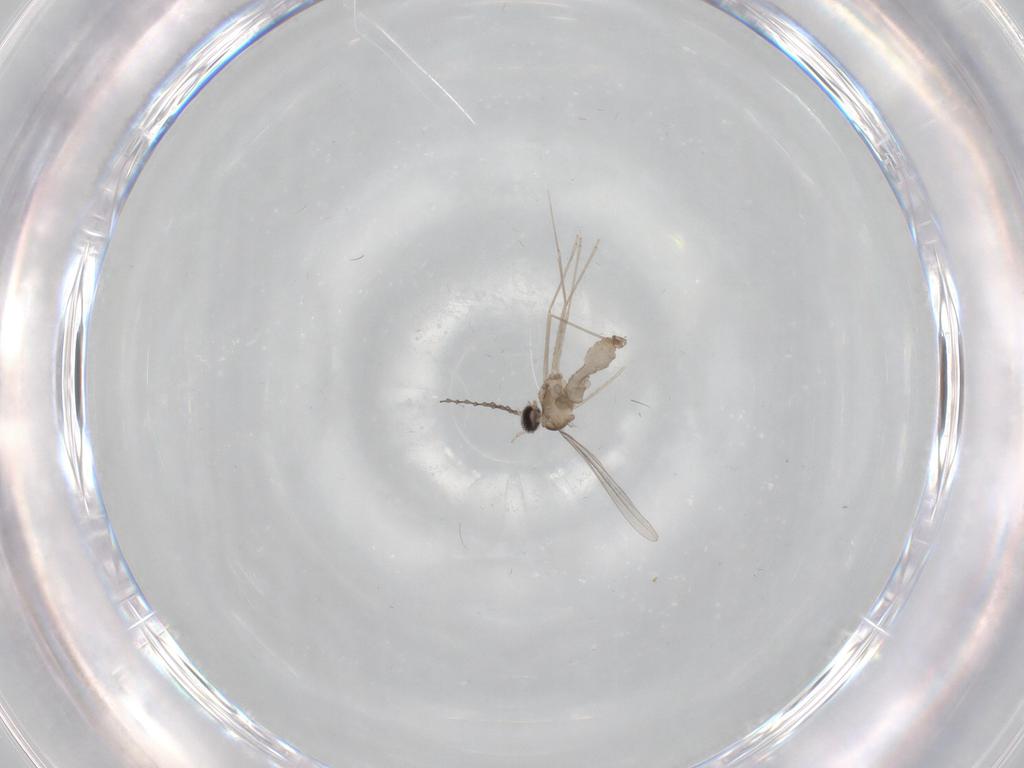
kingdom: Animalia
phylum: Arthropoda
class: Insecta
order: Diptera
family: Cecidomyiidae
